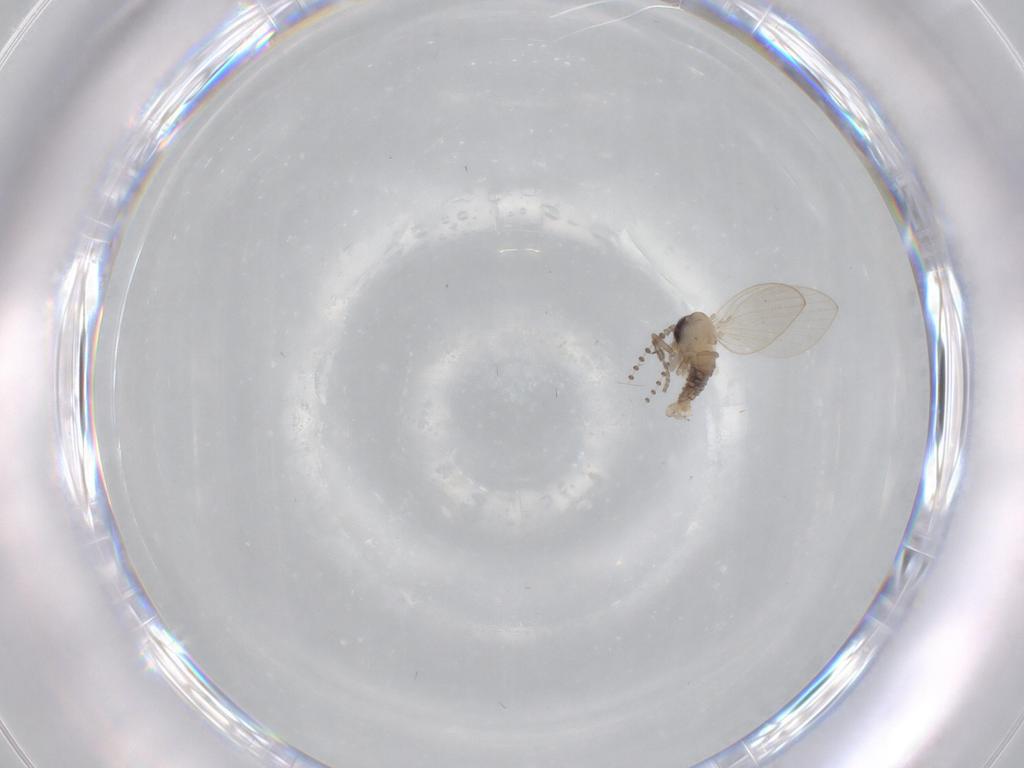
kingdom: Animalia
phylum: Arthropoda
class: Insecta
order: Diptera
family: Psychodidae
